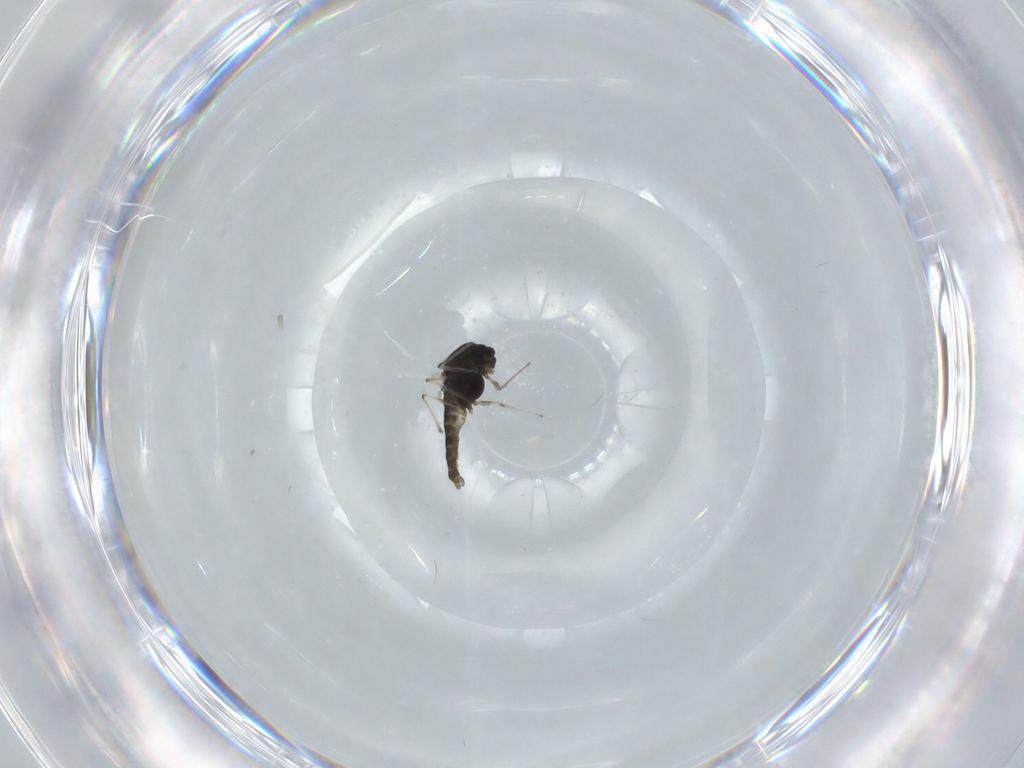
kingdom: Animalia
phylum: Arthropoda
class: Insecta
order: Diptera
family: Chironomidae
